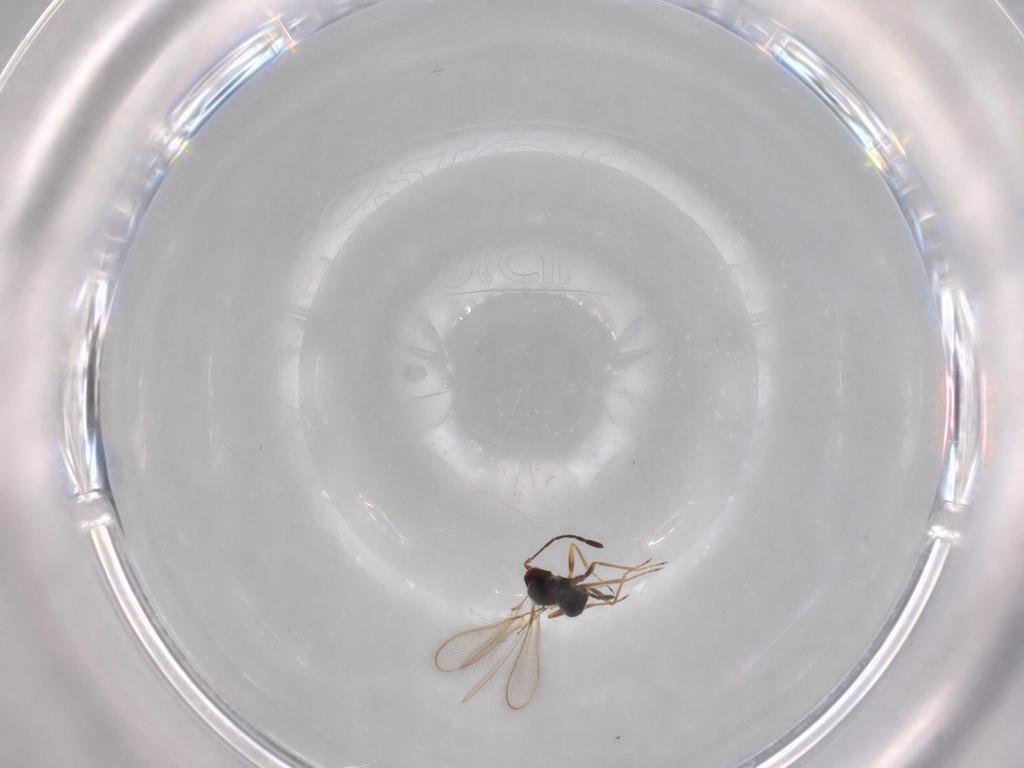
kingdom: Animalia
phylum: Arthropoda
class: Insecta
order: Hymenoptera
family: Mymaridae
